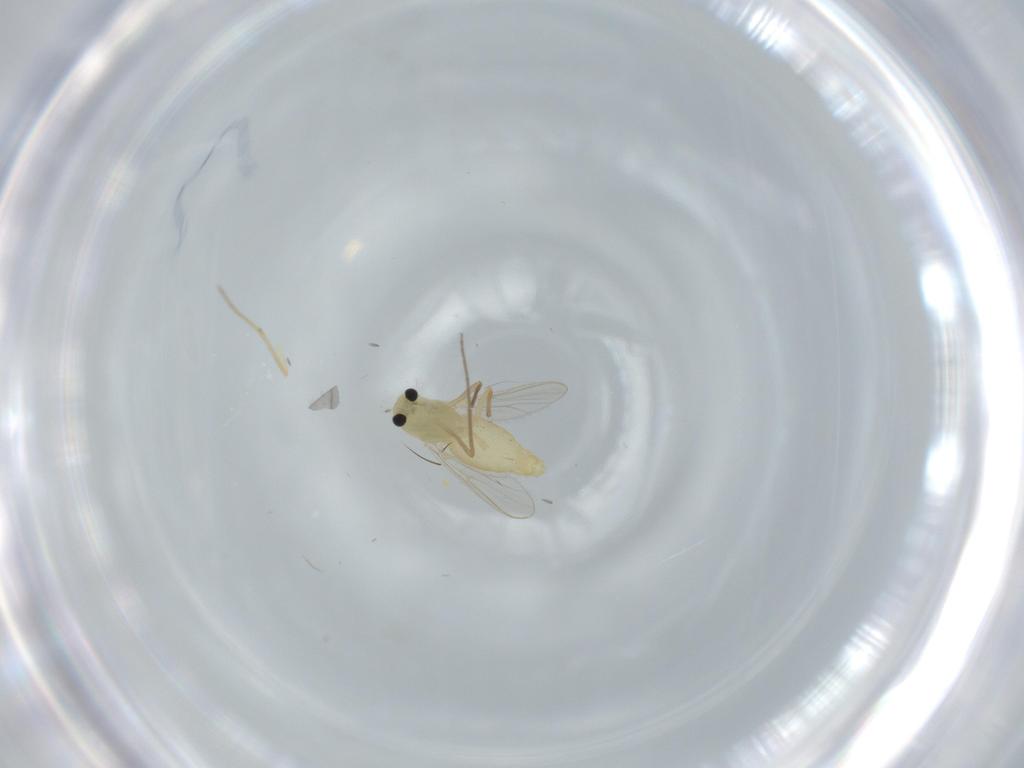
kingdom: Animalia
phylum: Arthropoda
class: Insecta
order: Diptera
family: Chironomidae
